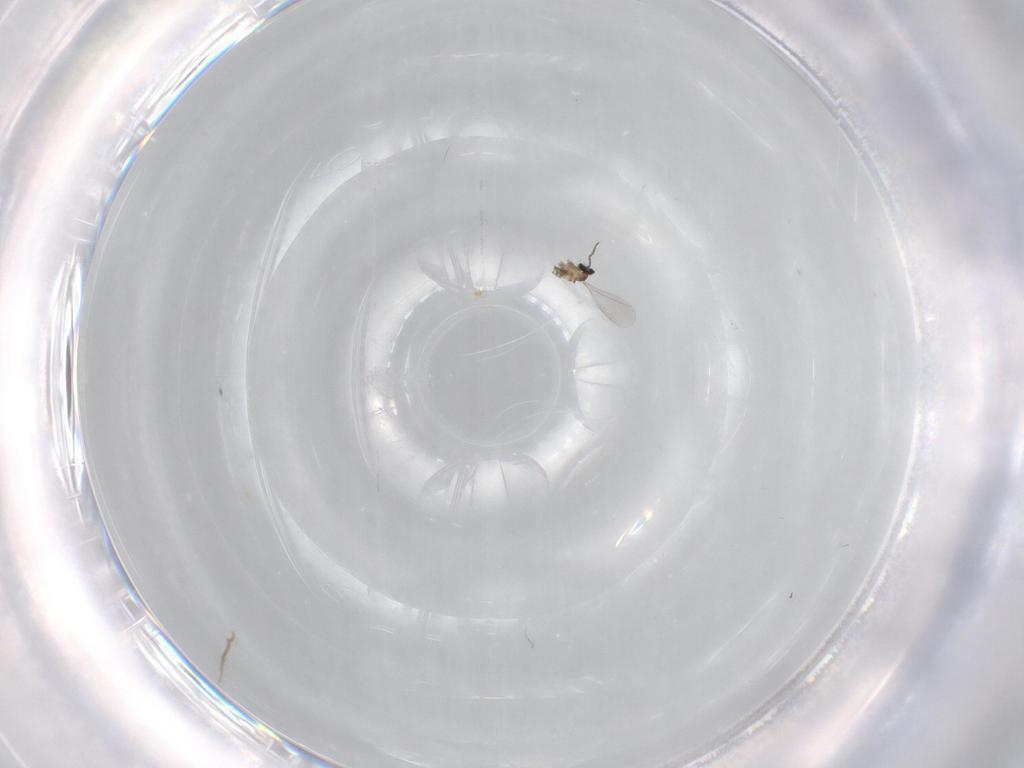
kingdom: Animalia
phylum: Arthropoda
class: Insecta
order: Diptera
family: Cecidomyiidae
